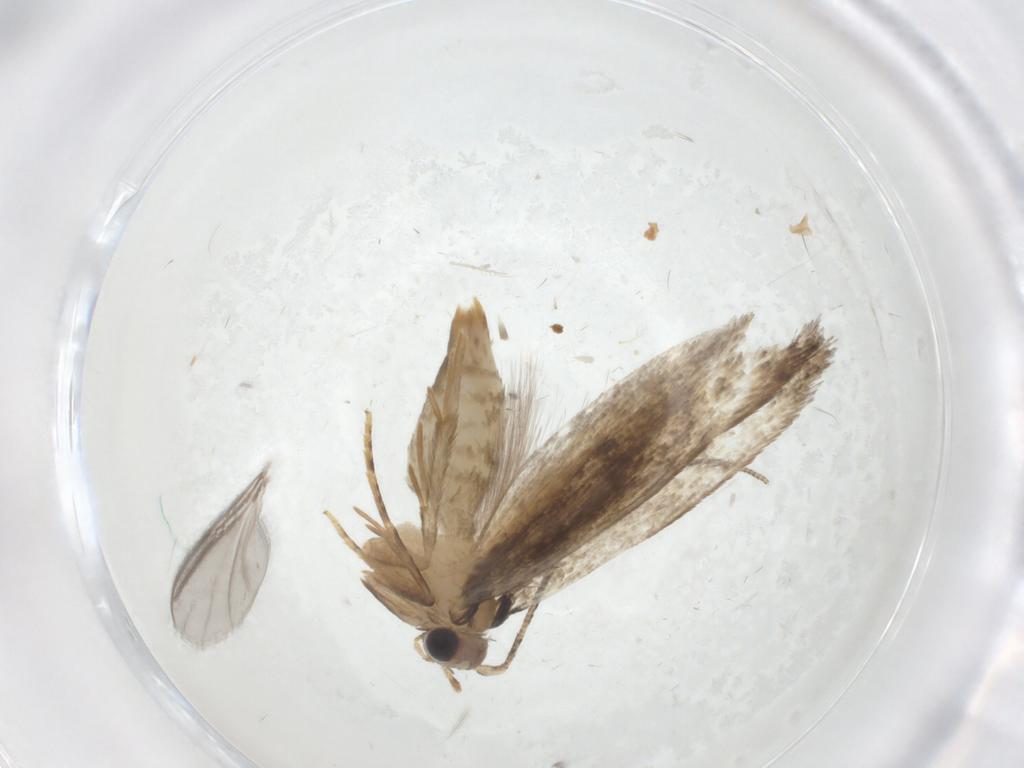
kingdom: Animalia
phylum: Arthropoda
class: Insecta
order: Lepidoptera
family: Tineidae
